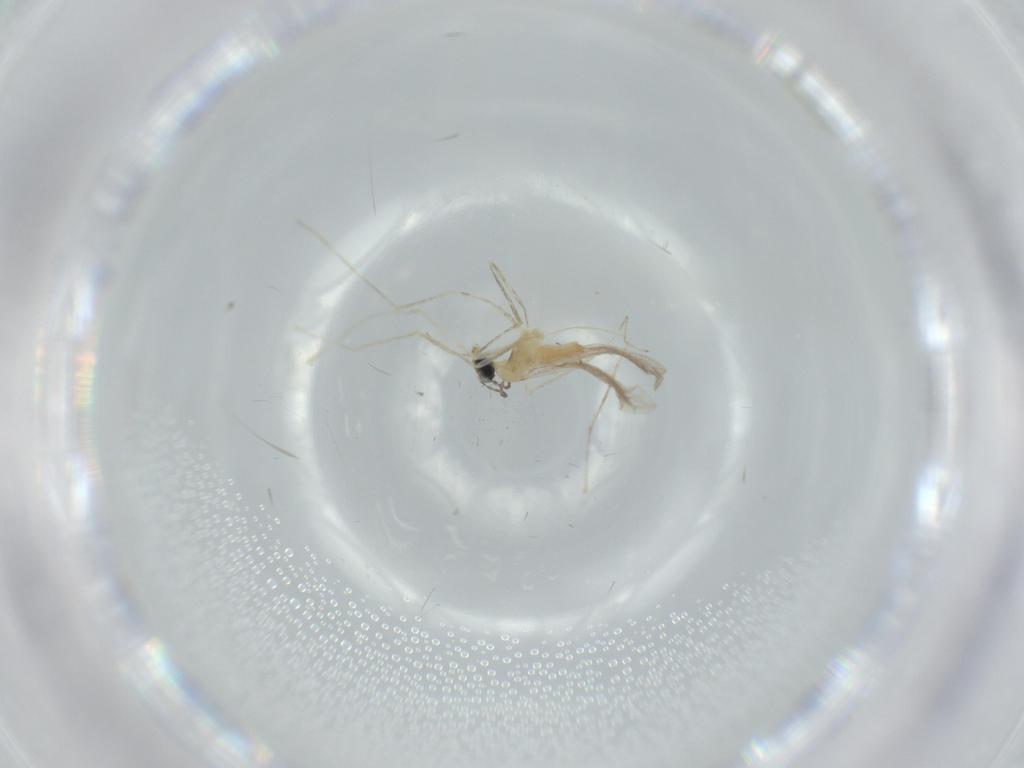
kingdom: Animalia
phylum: Arthropoda
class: Insecta
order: Diptera
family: Cecidomyiidae
